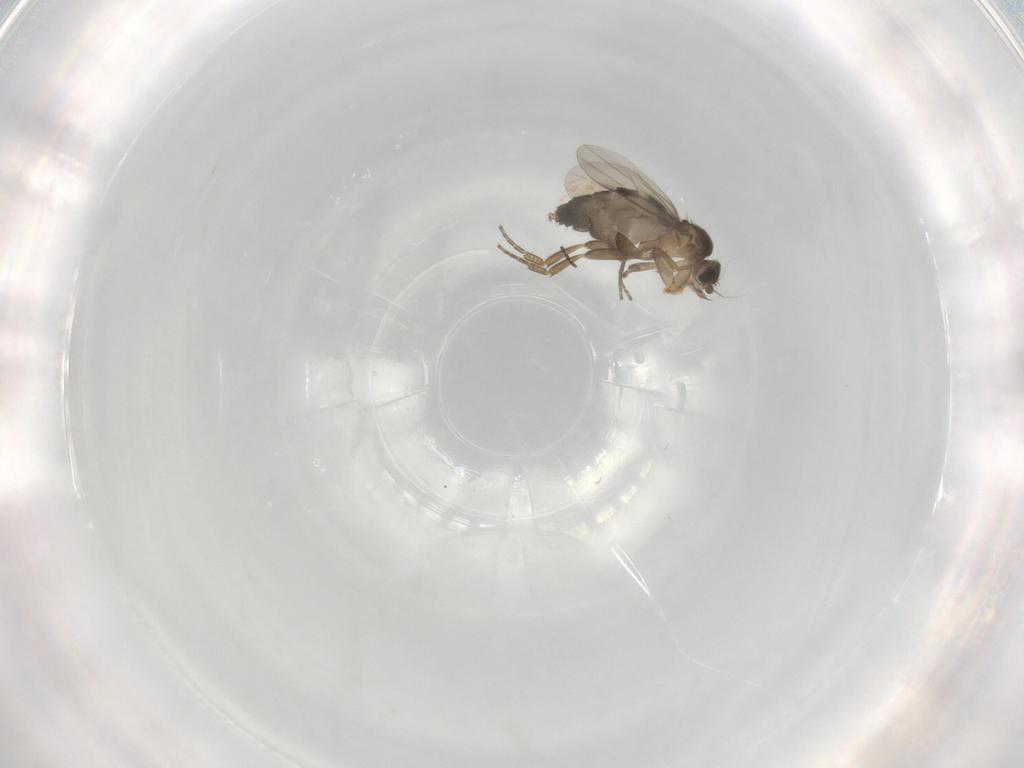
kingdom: Animalia
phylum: Arthropoda
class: Insecta
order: Diptera
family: Phoridae
